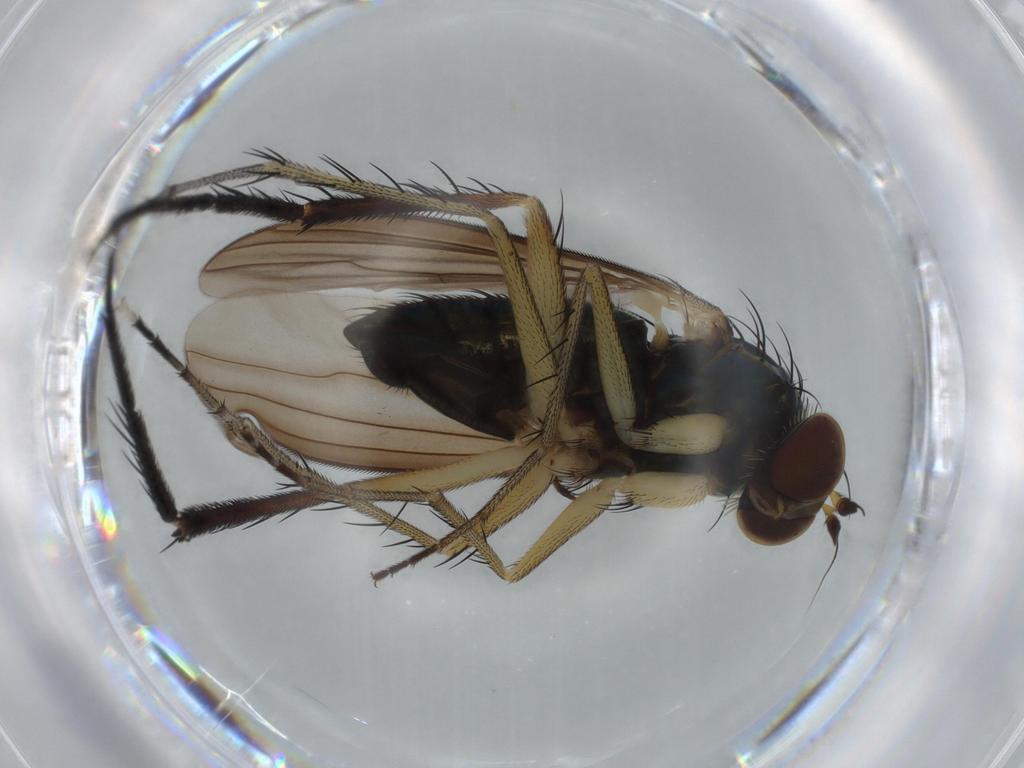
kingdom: Animalia
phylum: Arthropoda
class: Insecta
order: Diptera
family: Dolichopodidae
